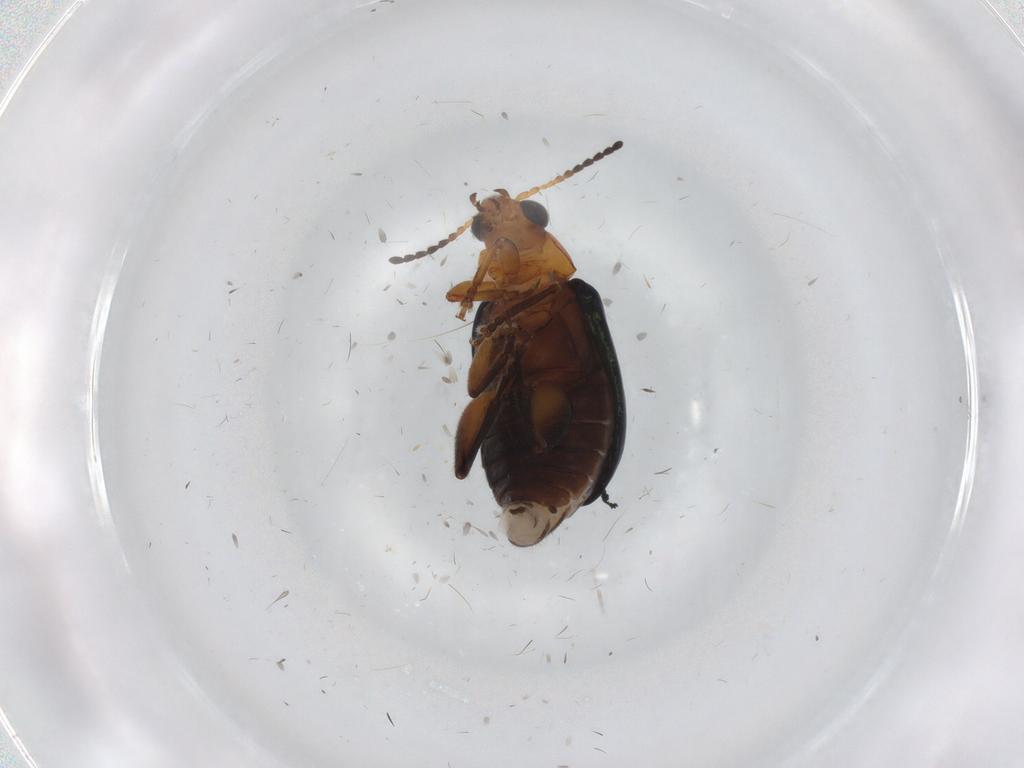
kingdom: Animalia
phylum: Arthropoda
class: Insecta
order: Coleoptera
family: Chrysomelidae
